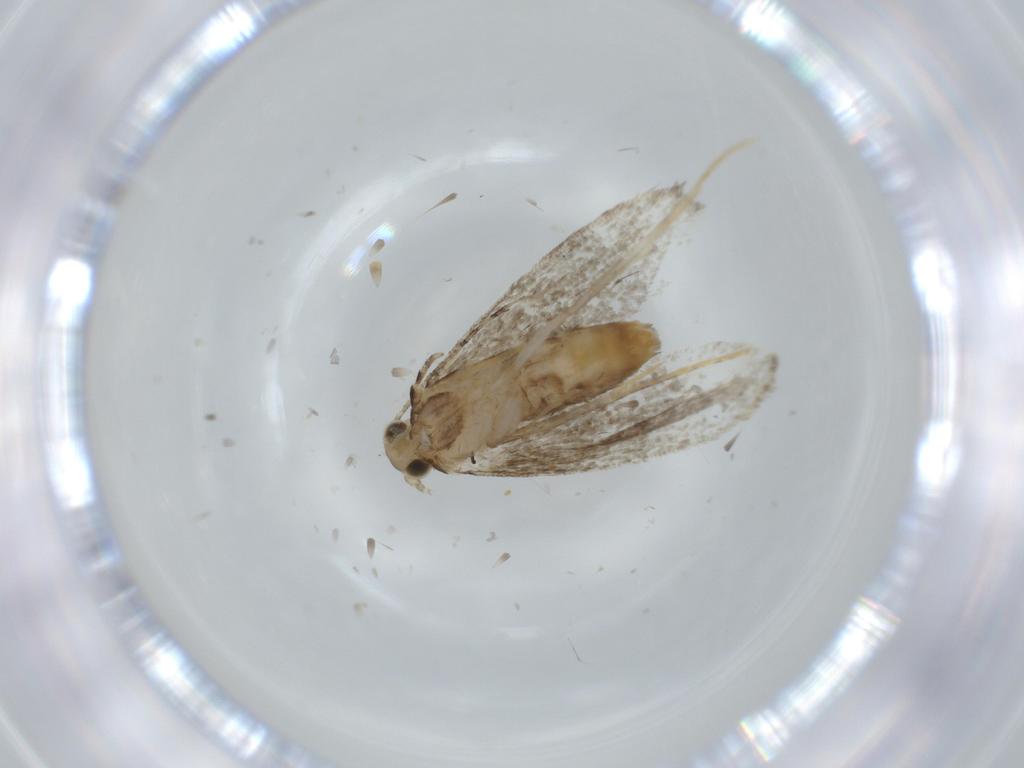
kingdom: Animalia
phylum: Arthropoda
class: Insecta
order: Lepidoptera
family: Tineidae
